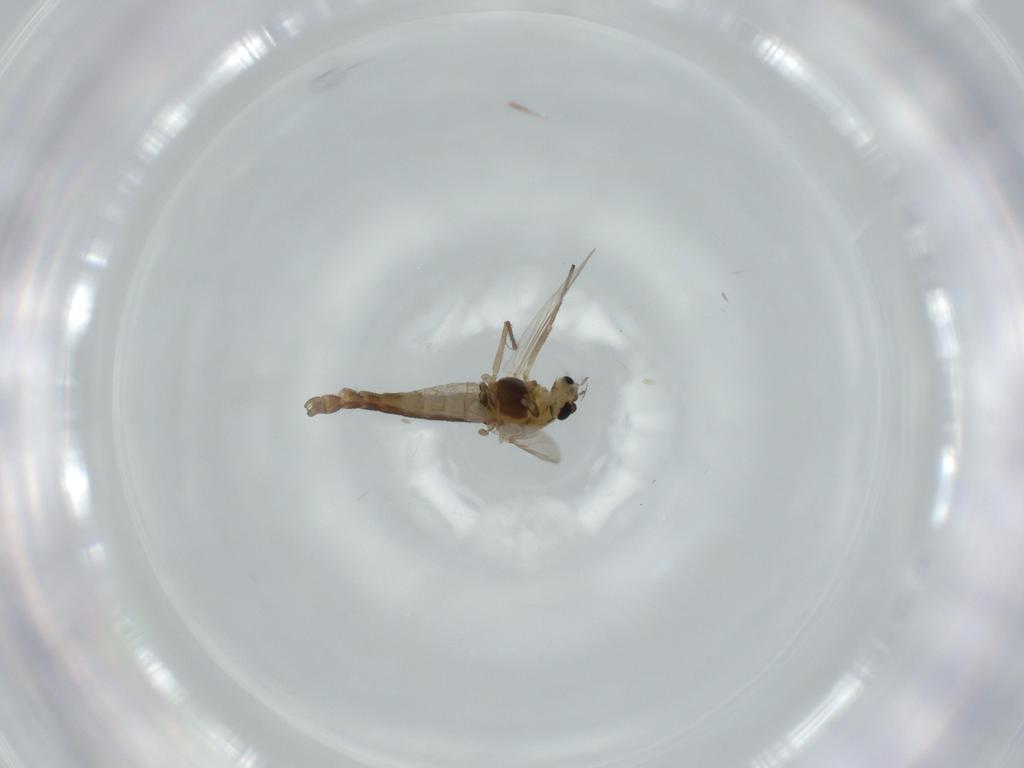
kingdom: Animalia
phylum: Arthropoda
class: Insecta
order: Diptera
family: Chironomidae
